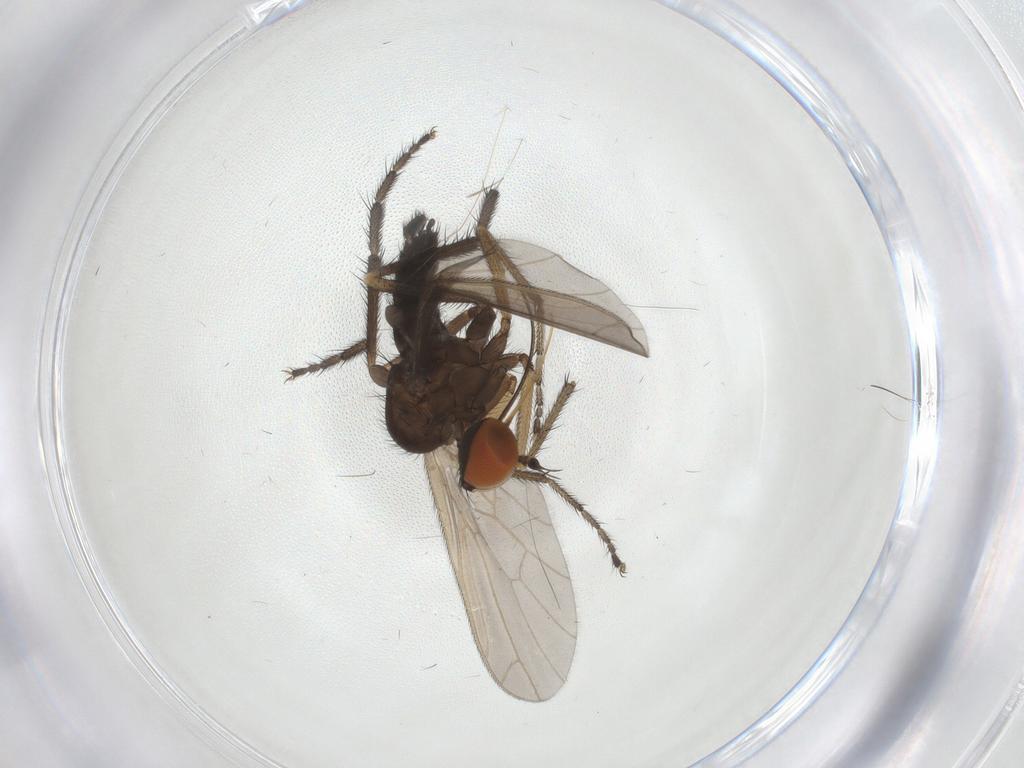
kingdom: Animalia
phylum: Arthropoda
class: Insecta
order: Diptera
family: Empididae
